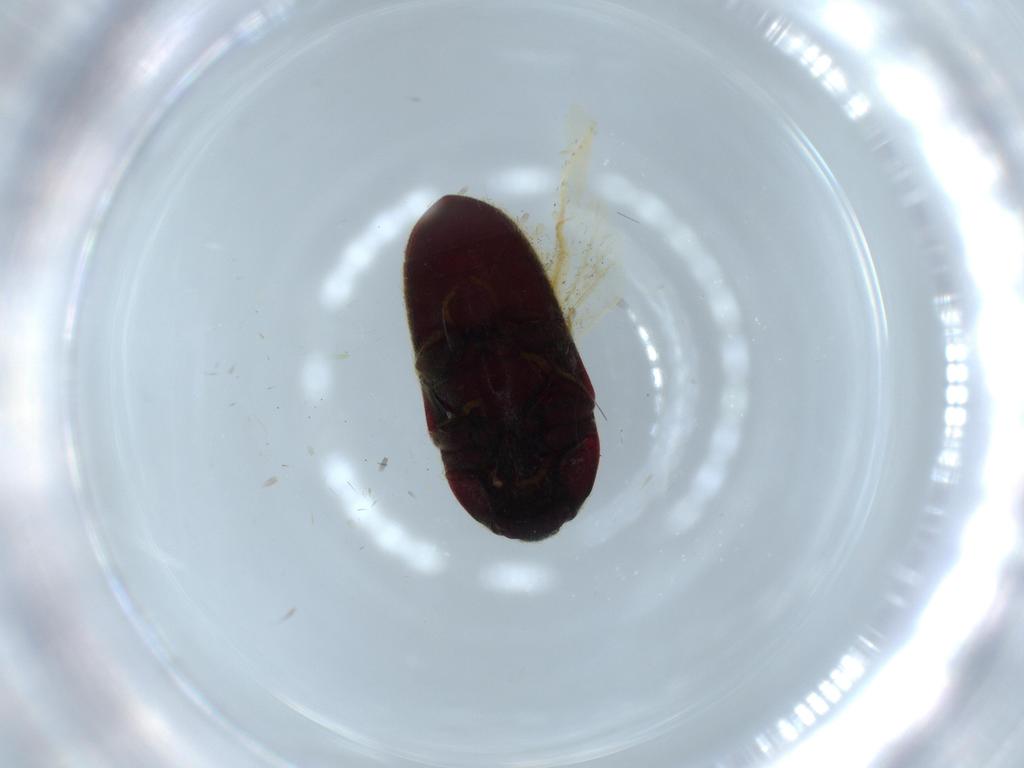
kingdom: Animalia
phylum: Arthropoda
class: Insecta
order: Coleoptera
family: Throscidae
